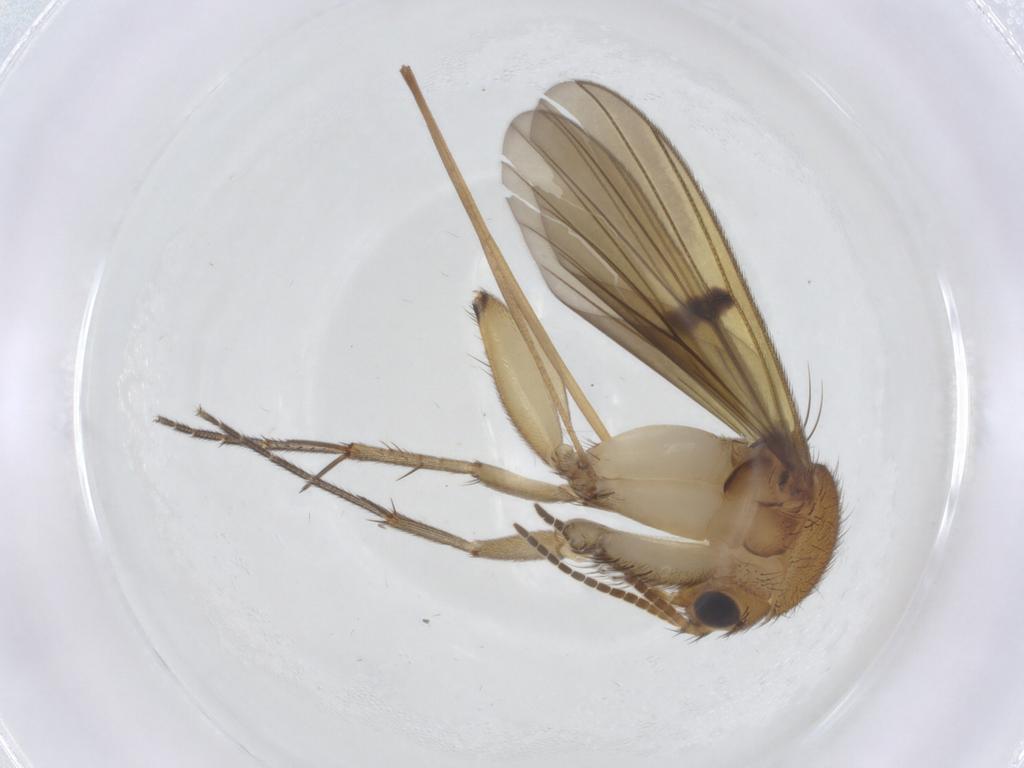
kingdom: Animalia
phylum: Arthropoda
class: Insecta
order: Diptera
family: Mycetophilidae
